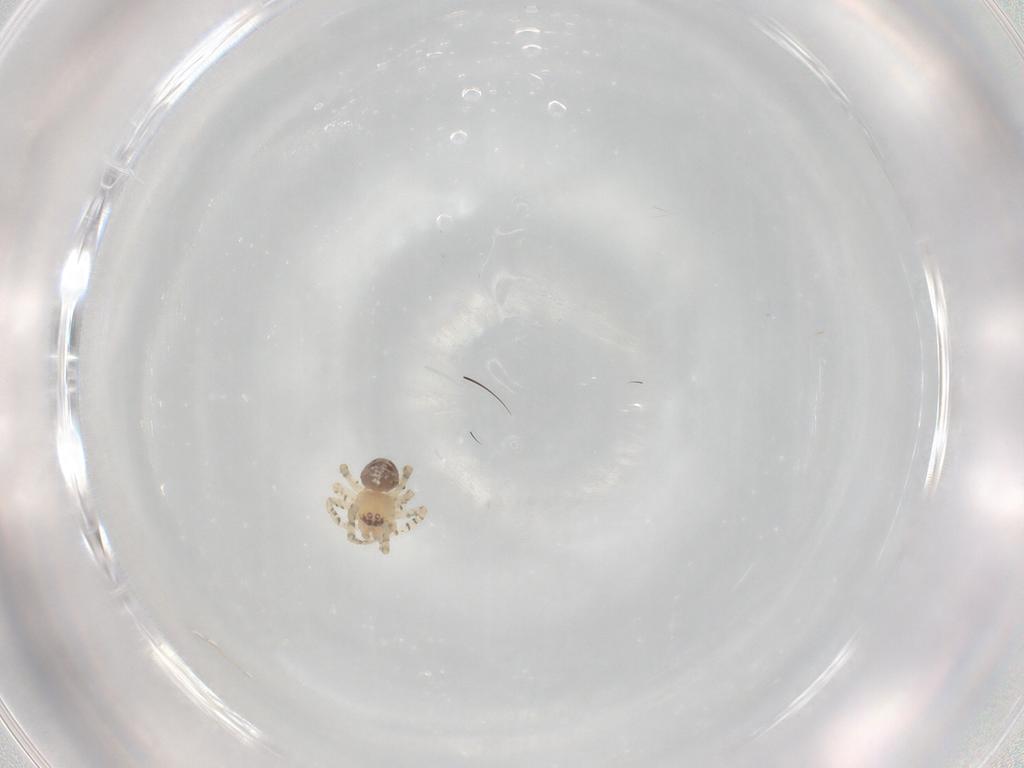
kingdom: Animalia
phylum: Arthropoda
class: Arachnida
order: Araneae
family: Theridiidae
